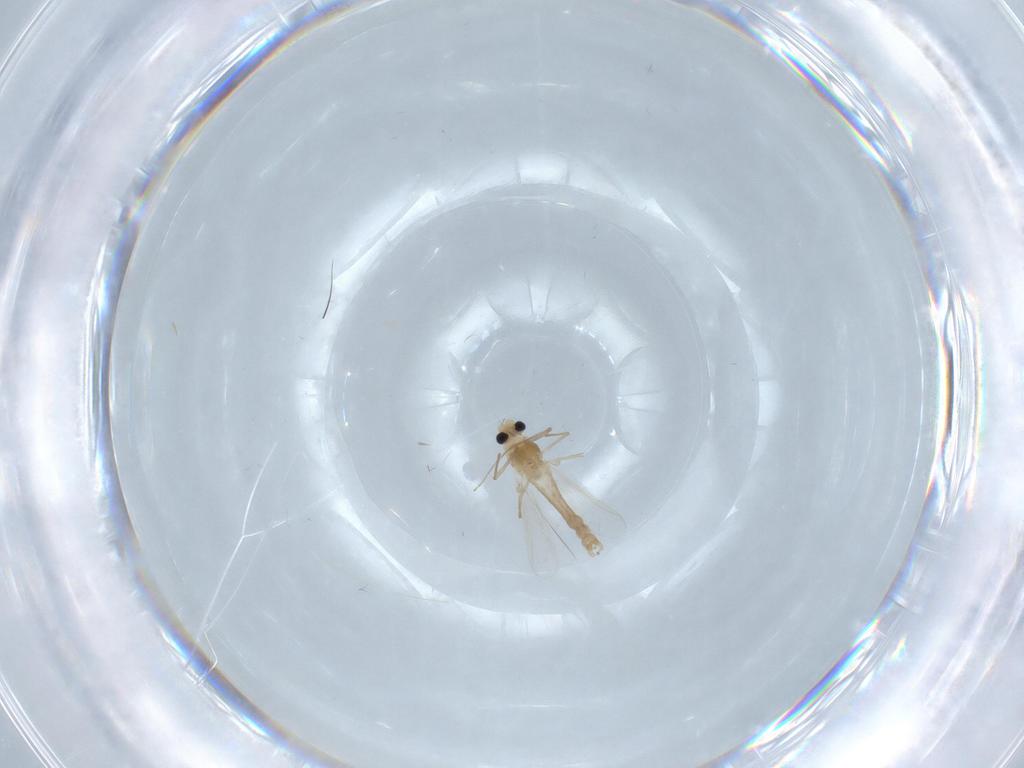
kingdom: Animalia
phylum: Arthropoda
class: Insecta
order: Diptera
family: Chironomidae
